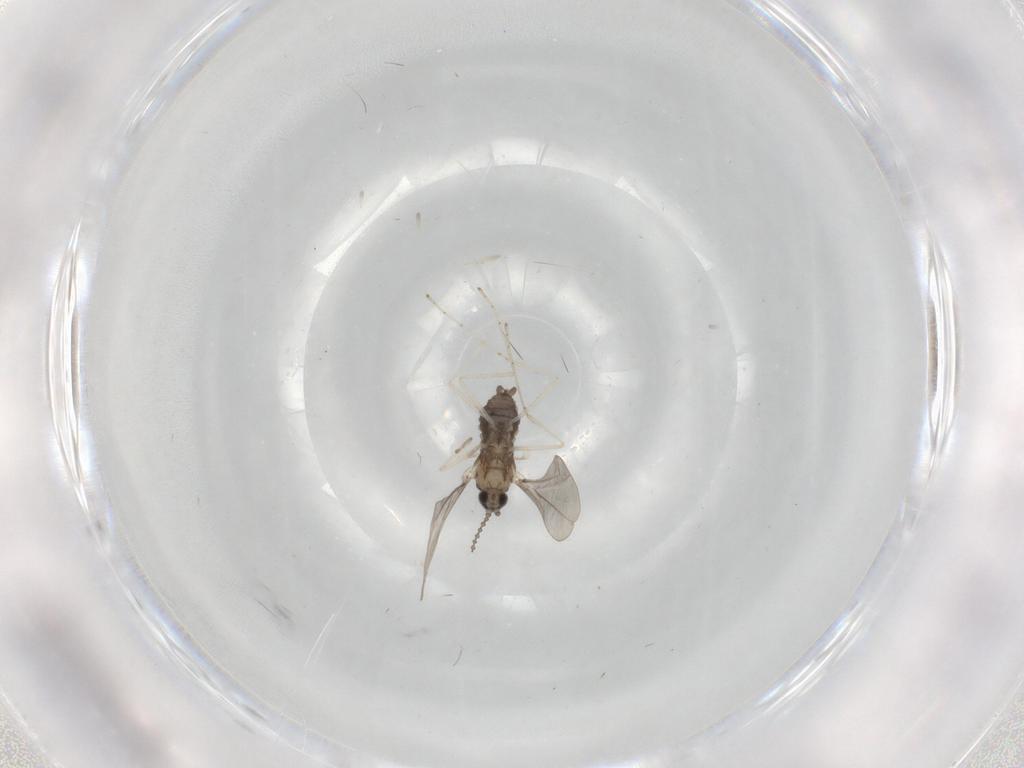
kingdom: Animalia
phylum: Arthropoda
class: Insecta
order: Diptera
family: Cecidomyiidae
